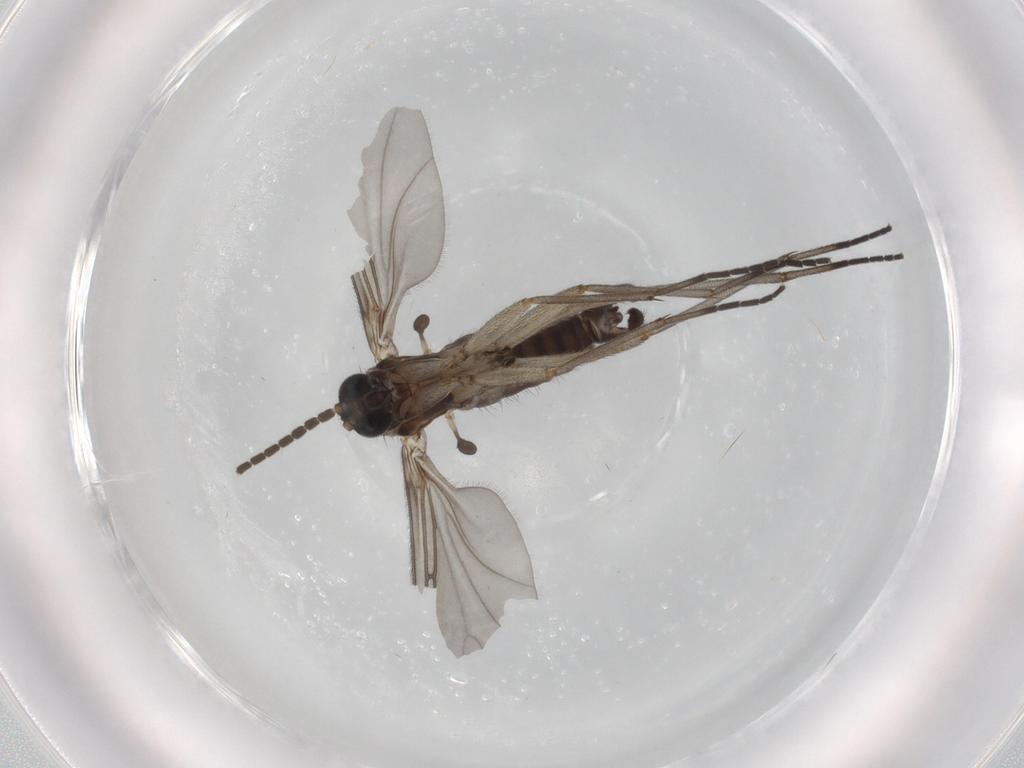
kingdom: Animalia
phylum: Arthropoda
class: Insecta
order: Diptera
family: Sciaridae
